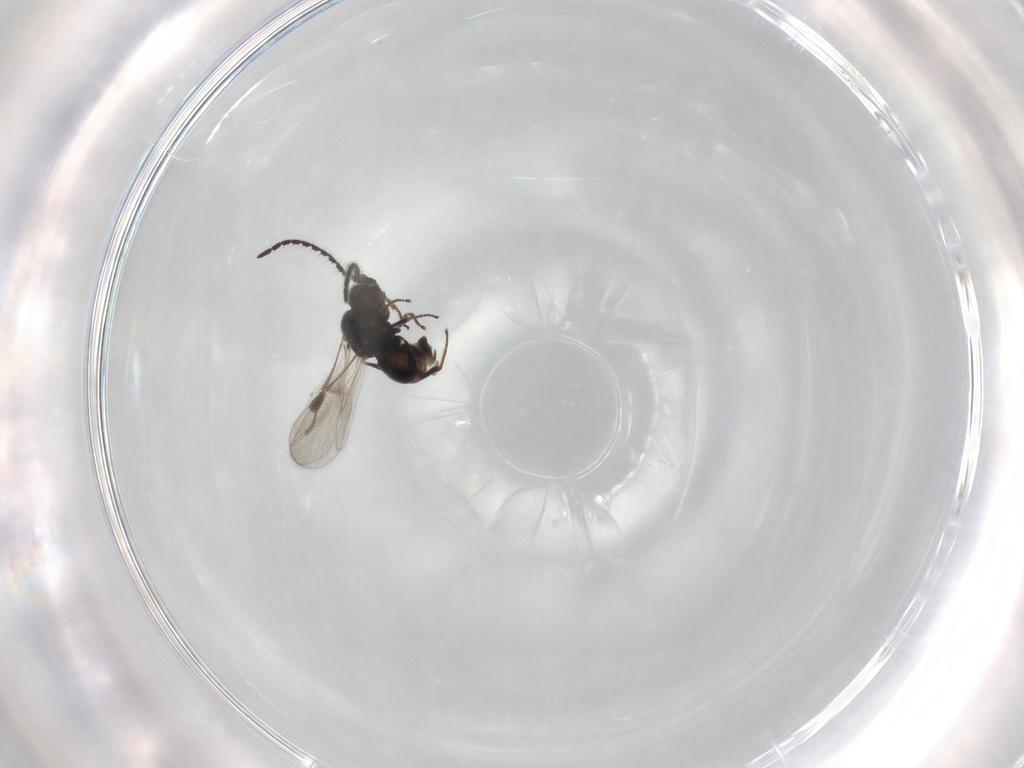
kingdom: Animalia
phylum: Arthropoda
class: Insecta
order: Hymenoptera
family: Megaspilidae
